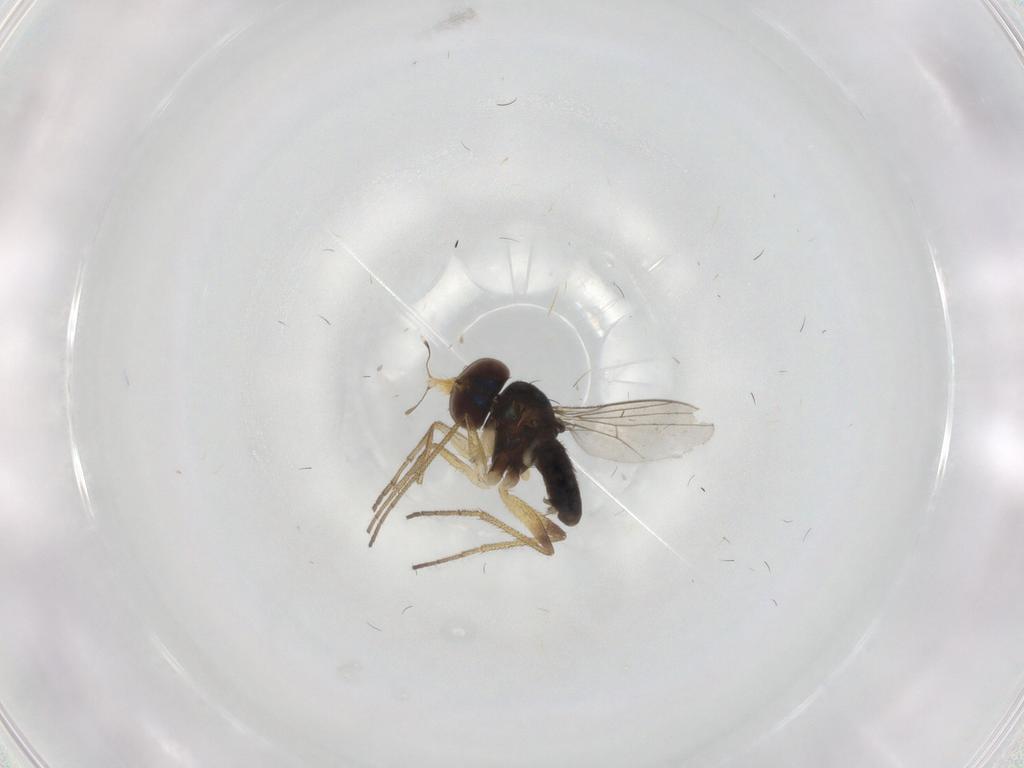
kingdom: Animalia
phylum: Arthropoda
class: Insecta
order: Diptera
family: Dolichopodidae
